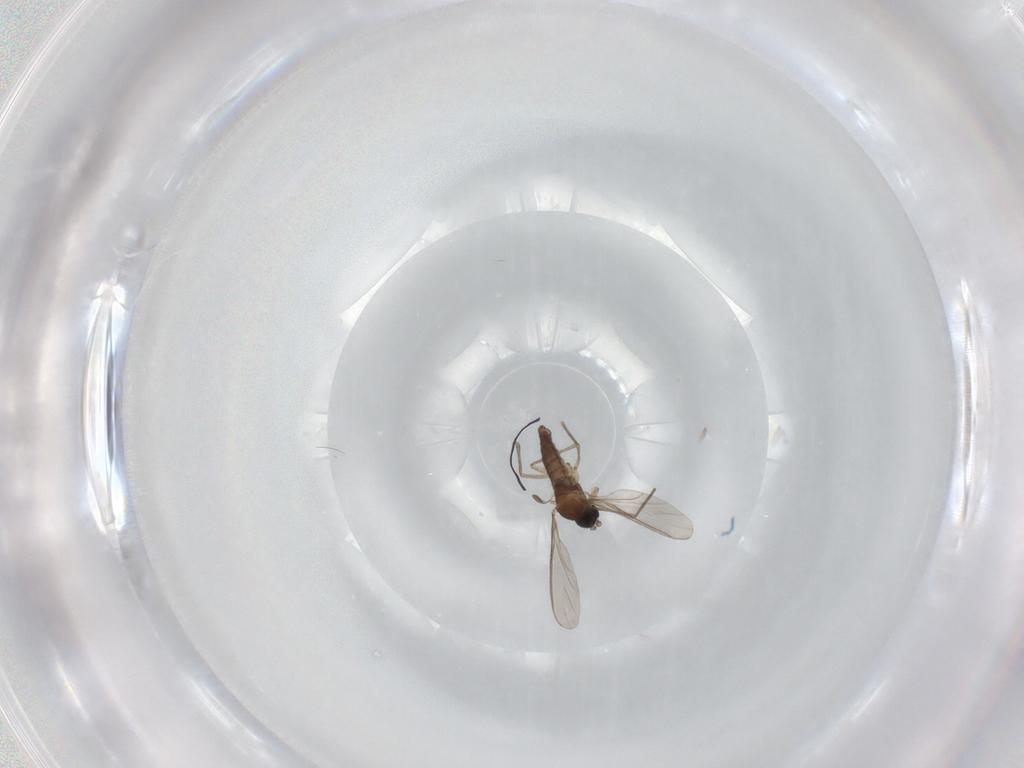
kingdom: Animalia
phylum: Arthropoda
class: Insecta
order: Diptera
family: Sciaridae
